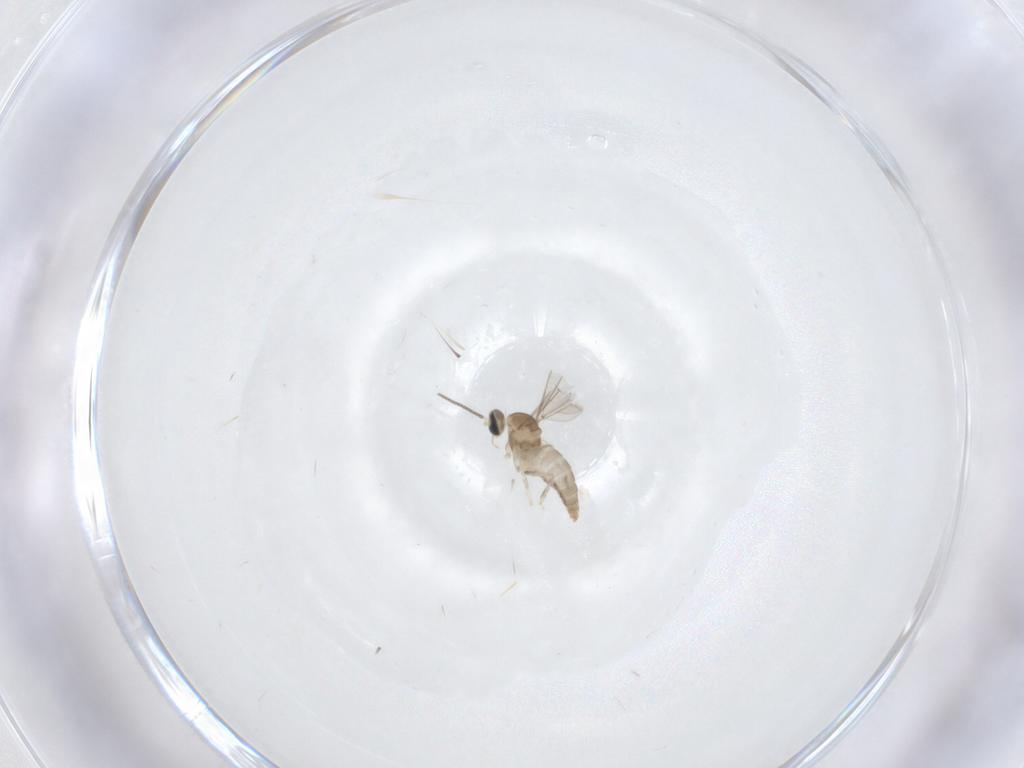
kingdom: Animalia
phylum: Arthropoda
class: Insecta
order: Diptera
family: Cecidomyiidae
